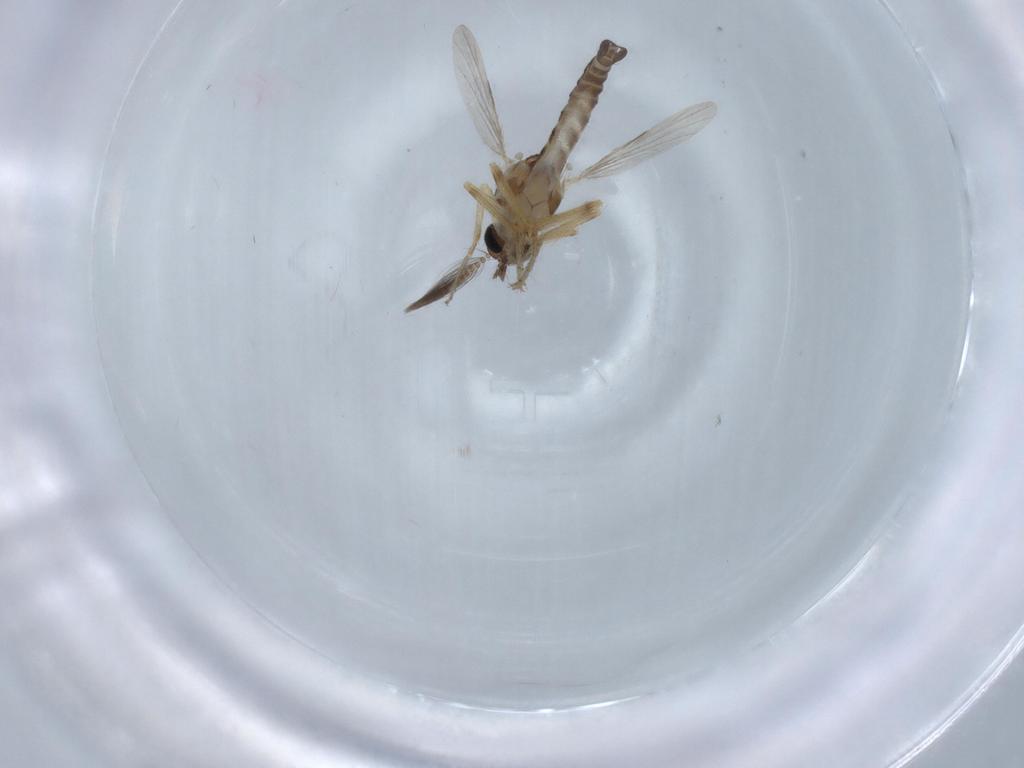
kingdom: Animalia
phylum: Arthropoda
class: Insecta
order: Diptera
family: Ceratopogonidae
